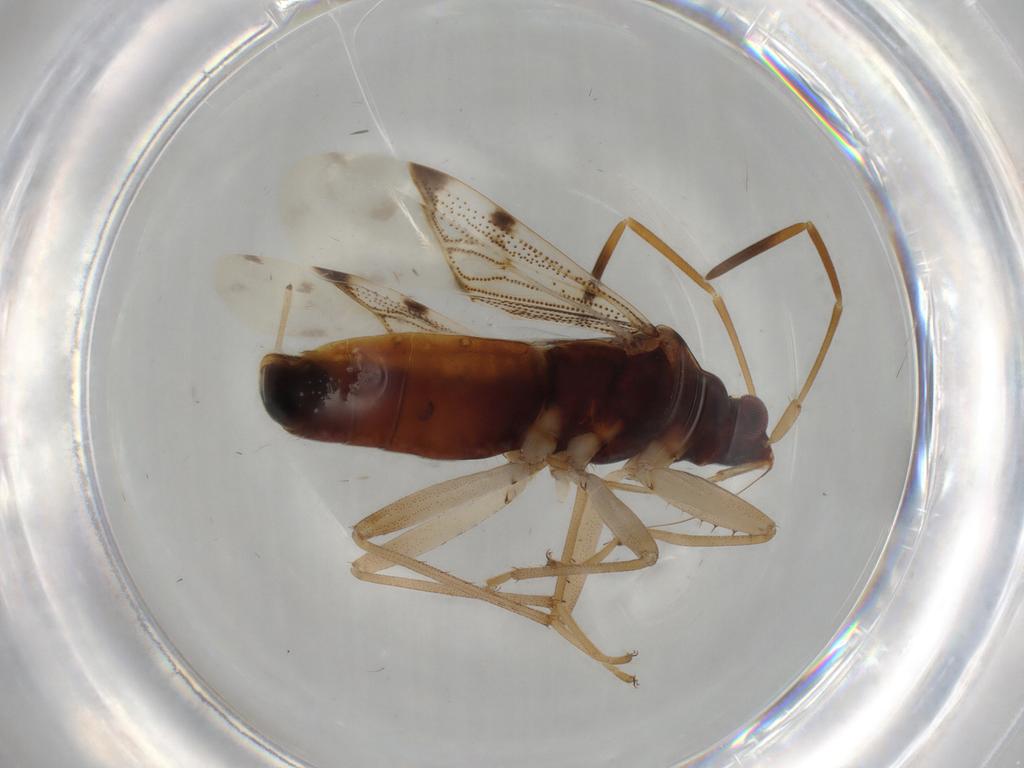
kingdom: Animalia
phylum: Arthropoda
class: Insecta
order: Hemiptera
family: Rhyparochromidae
